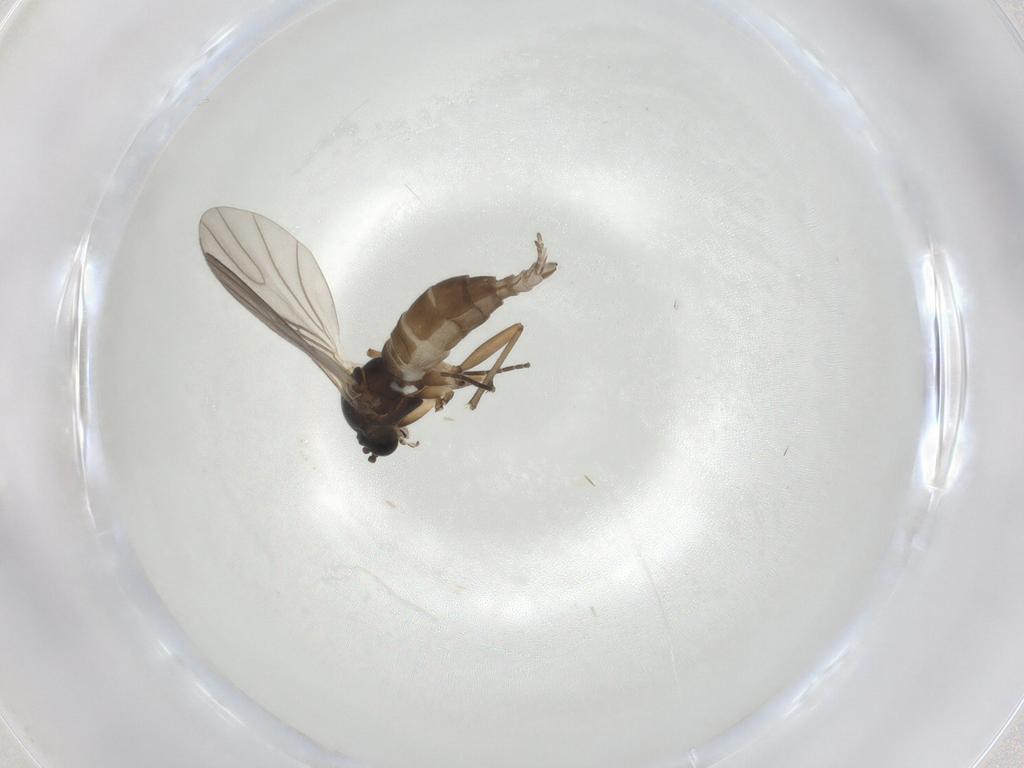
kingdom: Animalia
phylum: Arthropoda
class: Insecta
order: Diptera
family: Sciaridae
